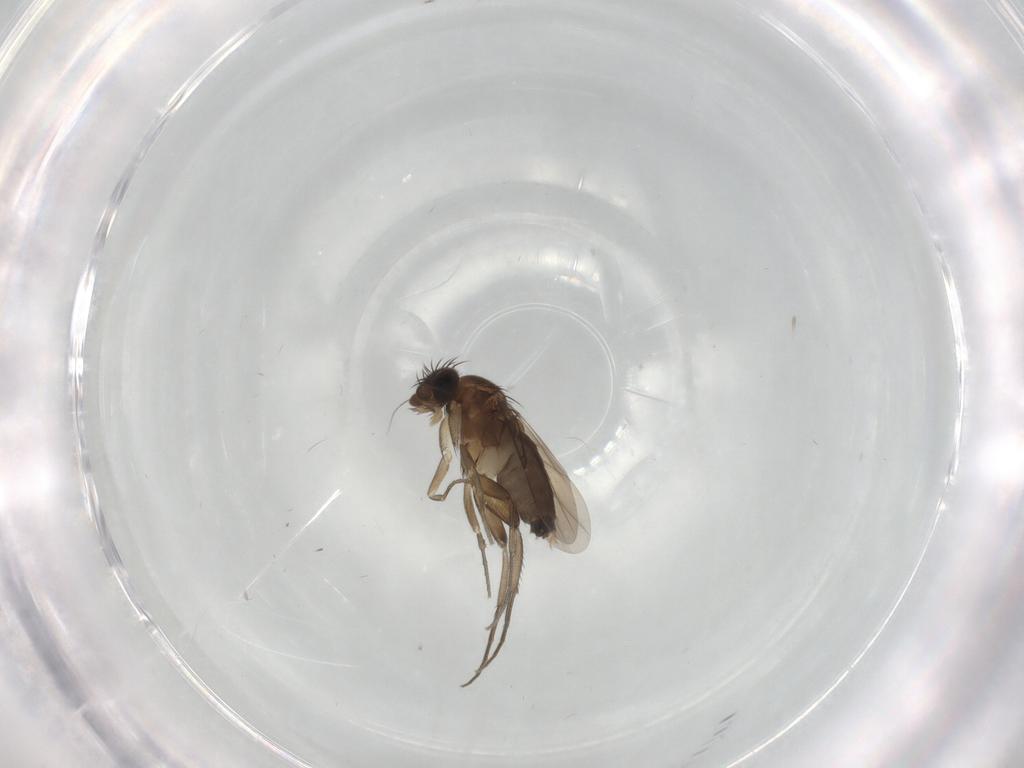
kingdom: Animalia
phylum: Arthropoda
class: Insecta
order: Diptera
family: Phoridae
